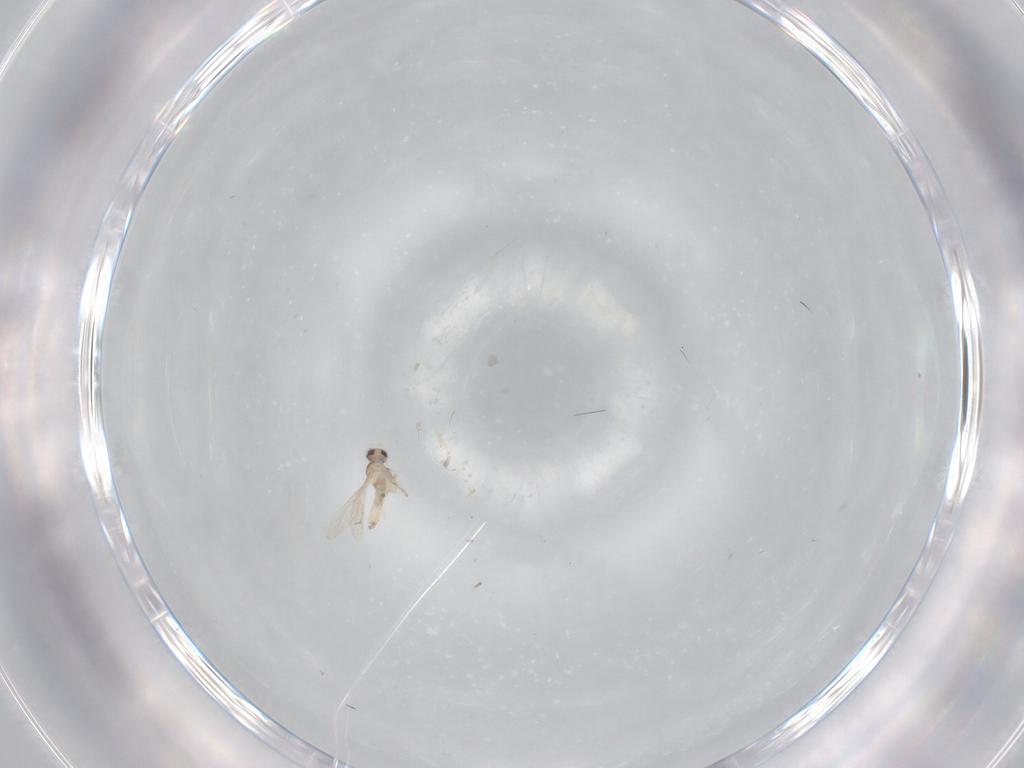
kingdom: Animalia
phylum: Arthropoda
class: Insecta
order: Diptera
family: Cecidomyiidae
